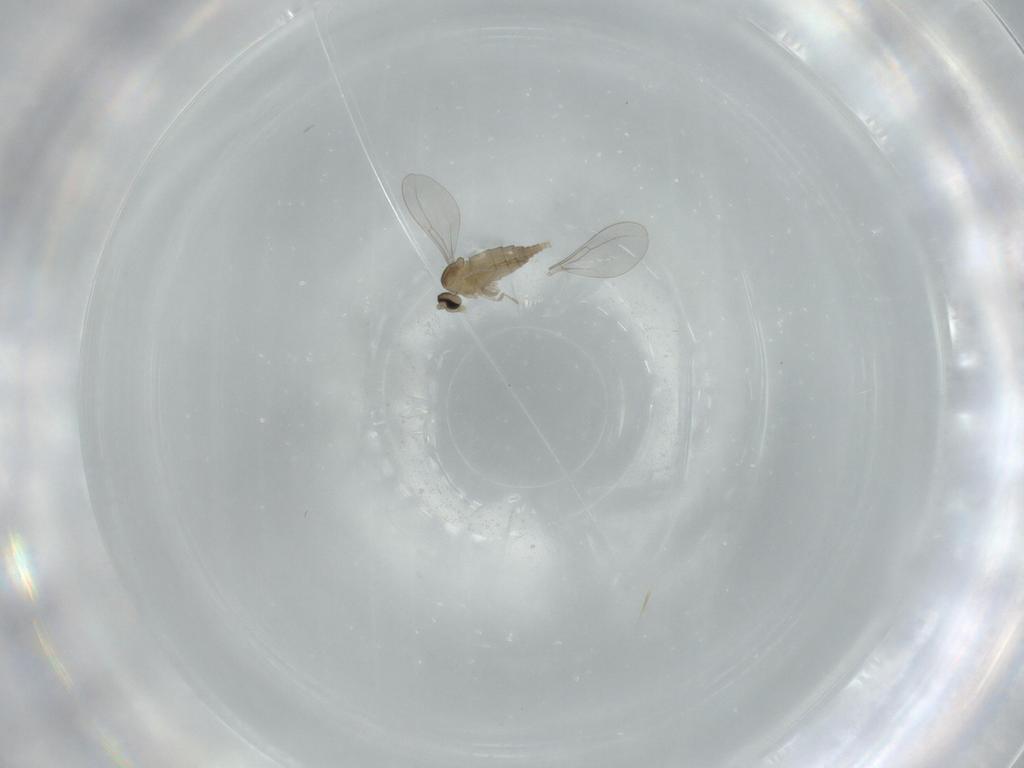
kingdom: Animalia
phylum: Arthropoda
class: Insecta
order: Diptera
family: Cecidomyiidae
